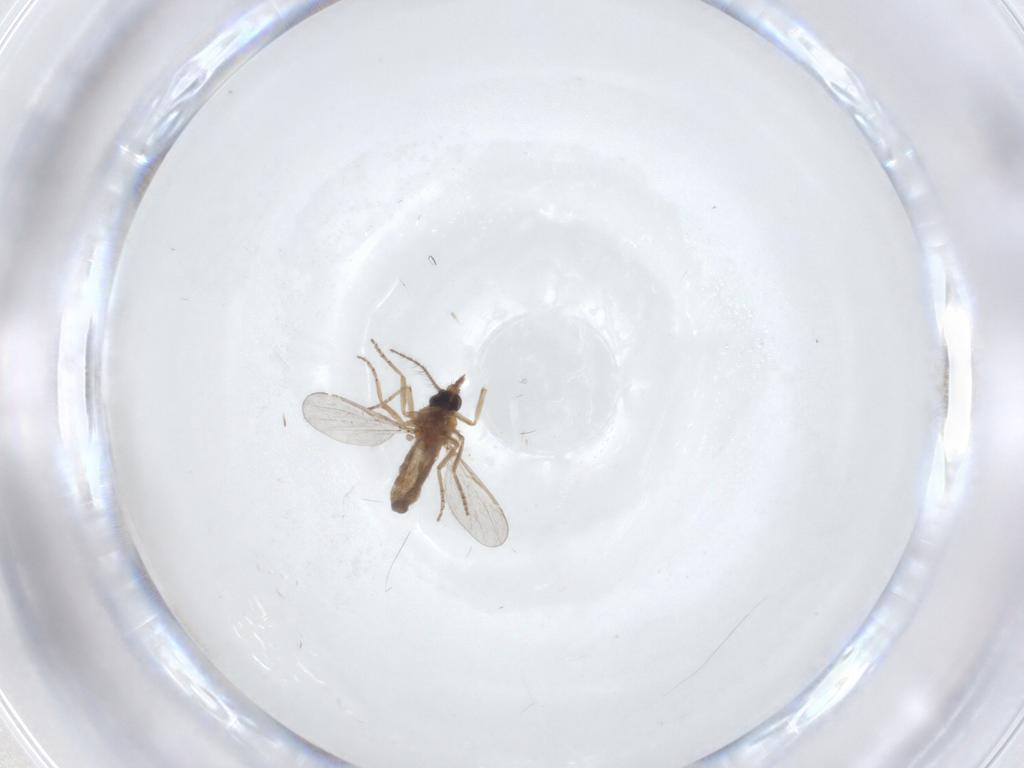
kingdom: Animalia
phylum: Arthropoda
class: Insecta
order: Diptera
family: Ceratopogonidae
